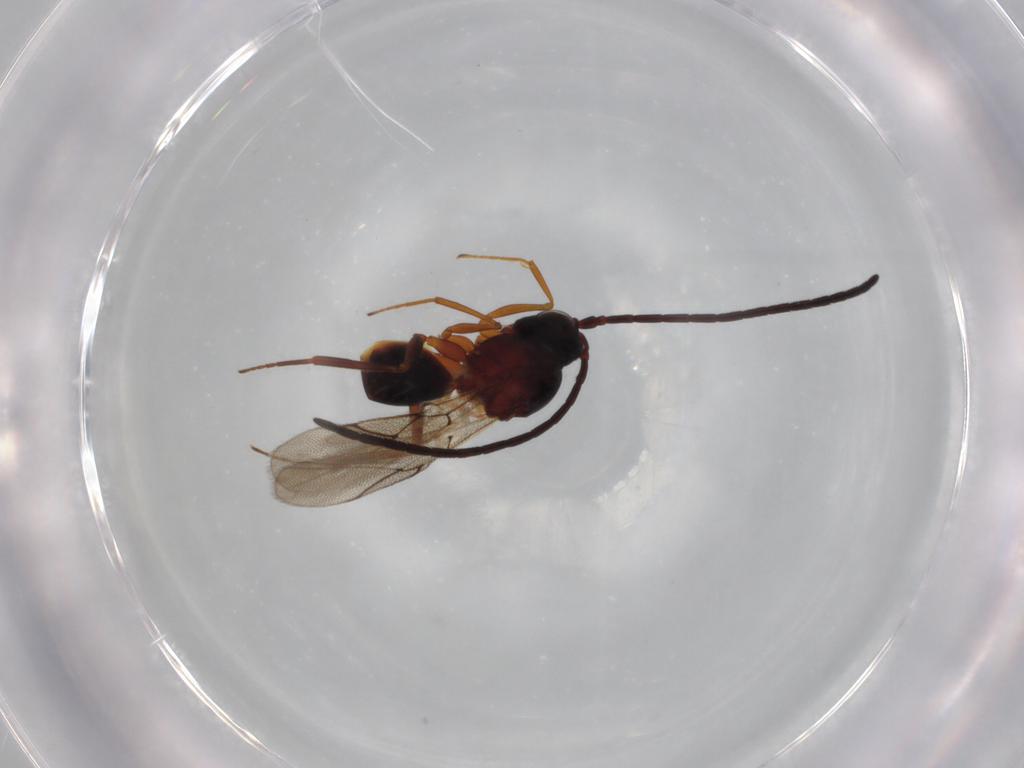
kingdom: Animalia
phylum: Arthropoda
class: Insecta
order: Hymenoptera
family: Figitidae
